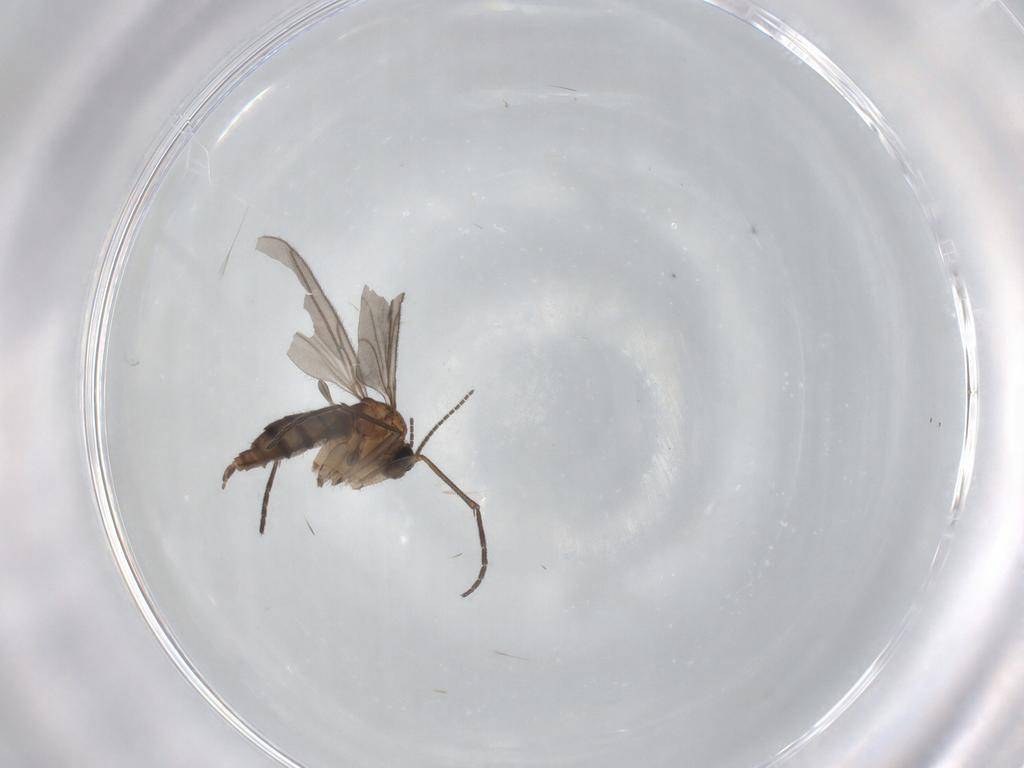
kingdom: Animalia
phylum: Arthropoda
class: Insecta
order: Diptera
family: Sciaridae
